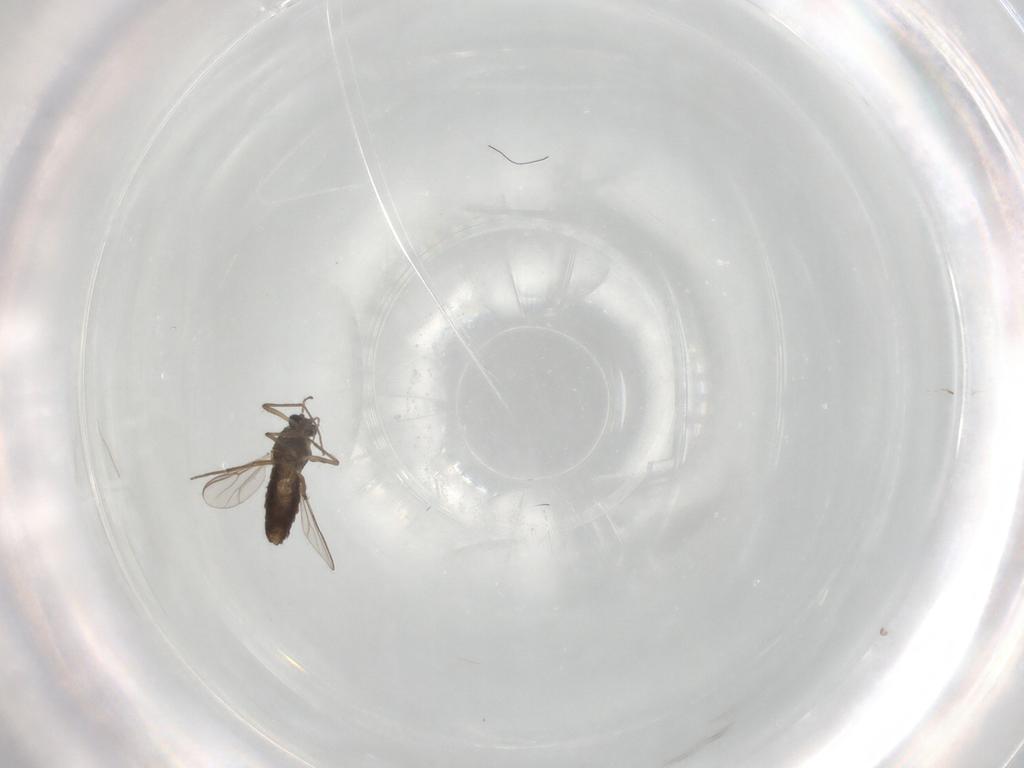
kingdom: Animalia
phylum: Arthropoda
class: Insecta
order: Diptera
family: Chironomidae
